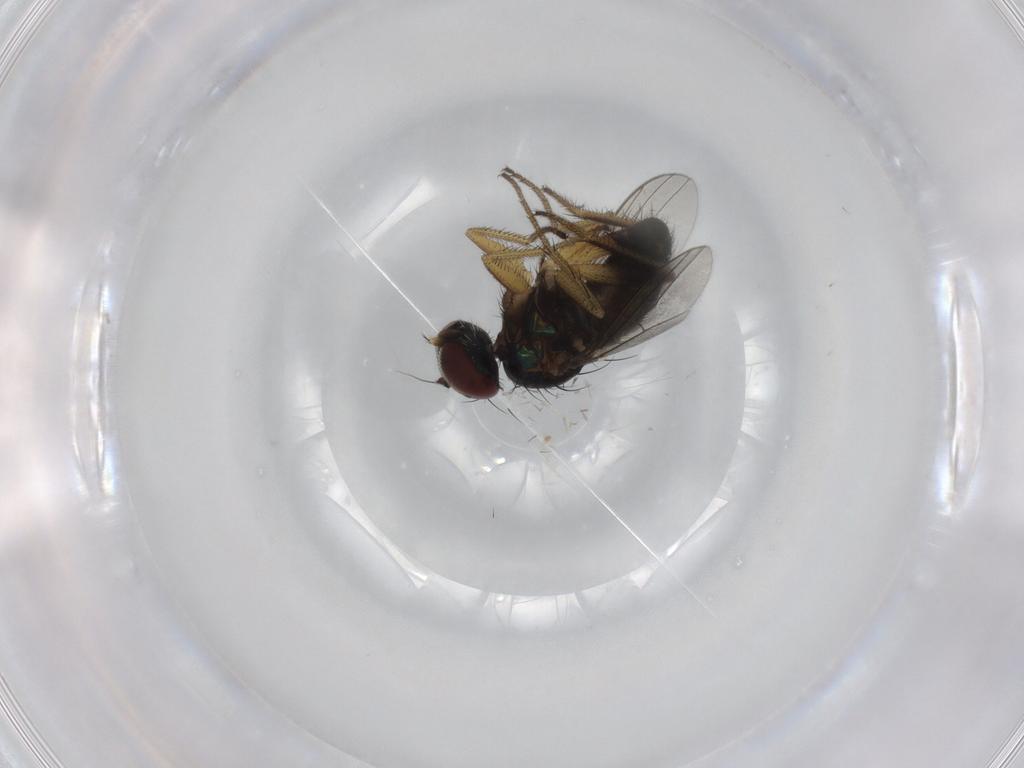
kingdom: Animalia
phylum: Arthropoda
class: Insecta
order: Diptera
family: Dolichopodidae
